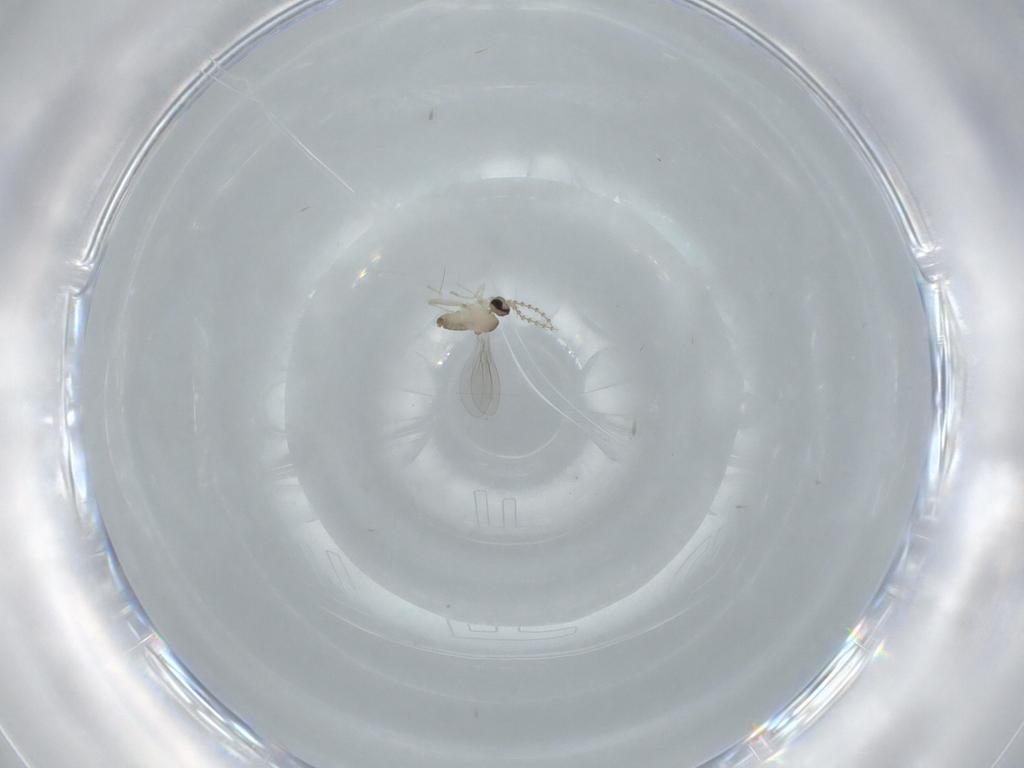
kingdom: Animalia
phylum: Arthropoda
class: Insecta
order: Diptera
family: Cecidomyiidae
